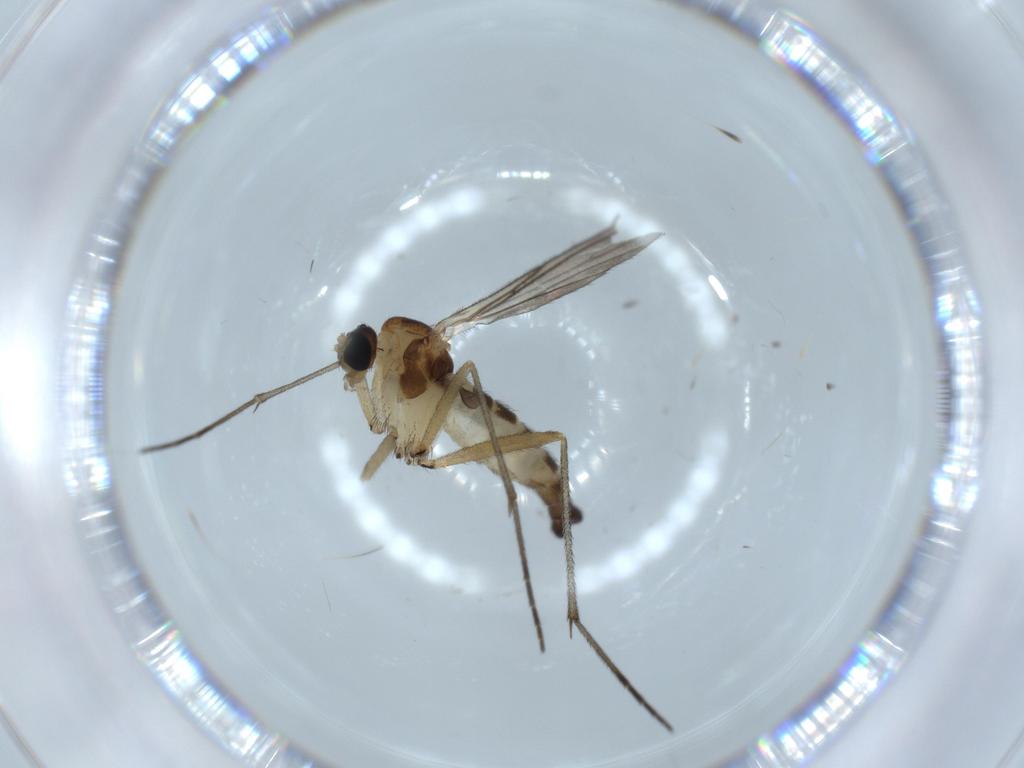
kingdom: Animalia
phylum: Arthropoda
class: Insecta
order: Diptera
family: Sciaridae
